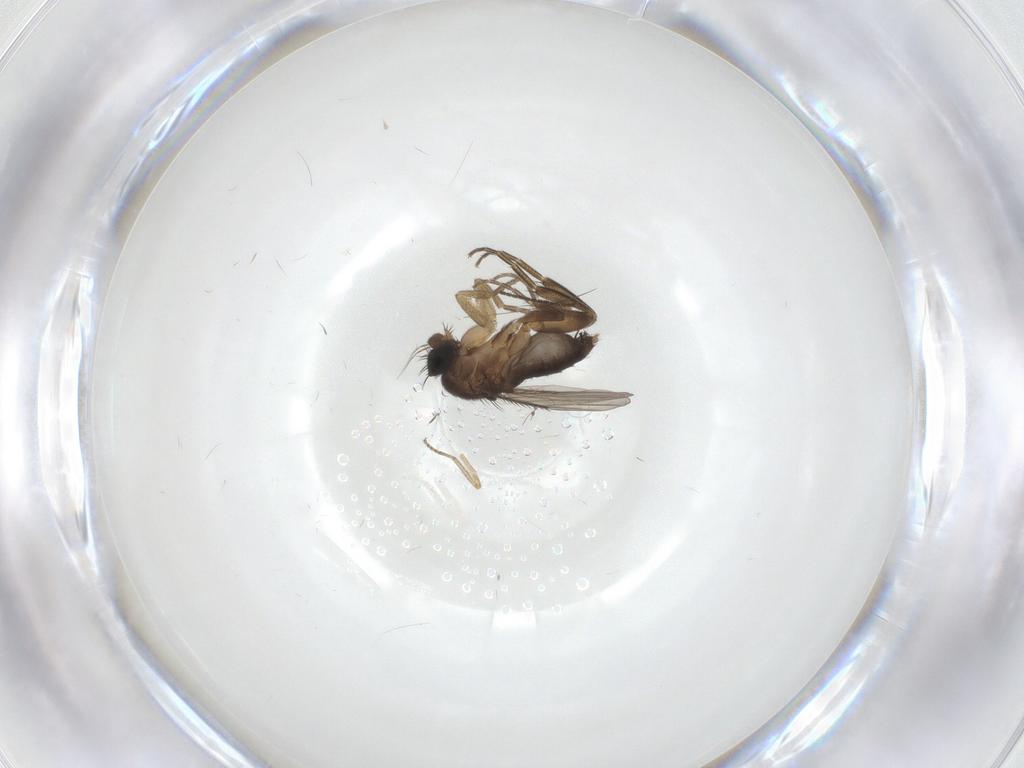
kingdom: Animalia
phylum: Arthropoda
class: Insecta
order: Diptera
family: Phoridae
